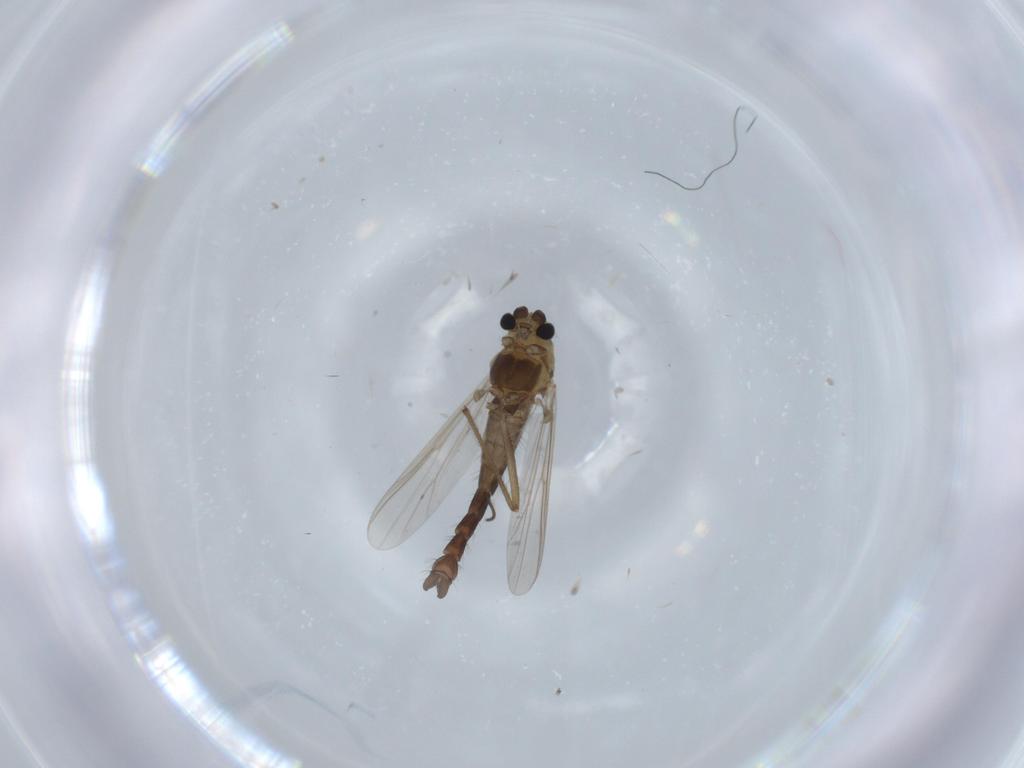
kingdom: Animalia
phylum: Arthropoda
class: Insecta
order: Diptera
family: Chironomidae
